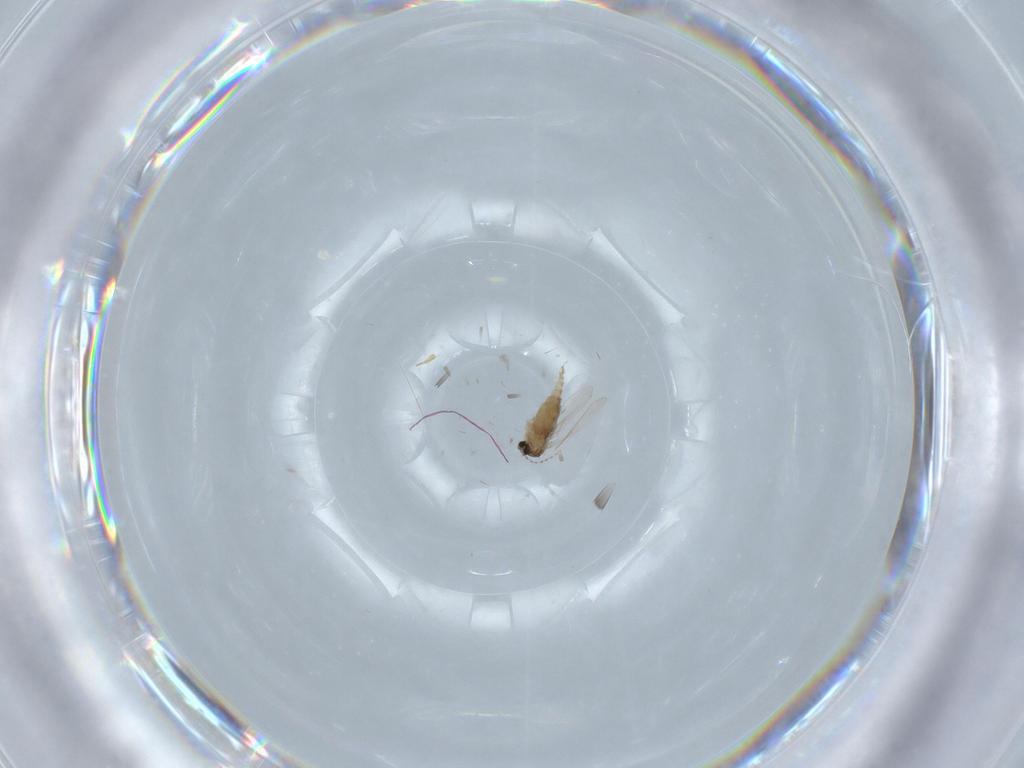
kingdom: Animalia
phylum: Arthropoda
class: Insecta
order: Diptera
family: Cecidomyiidae
